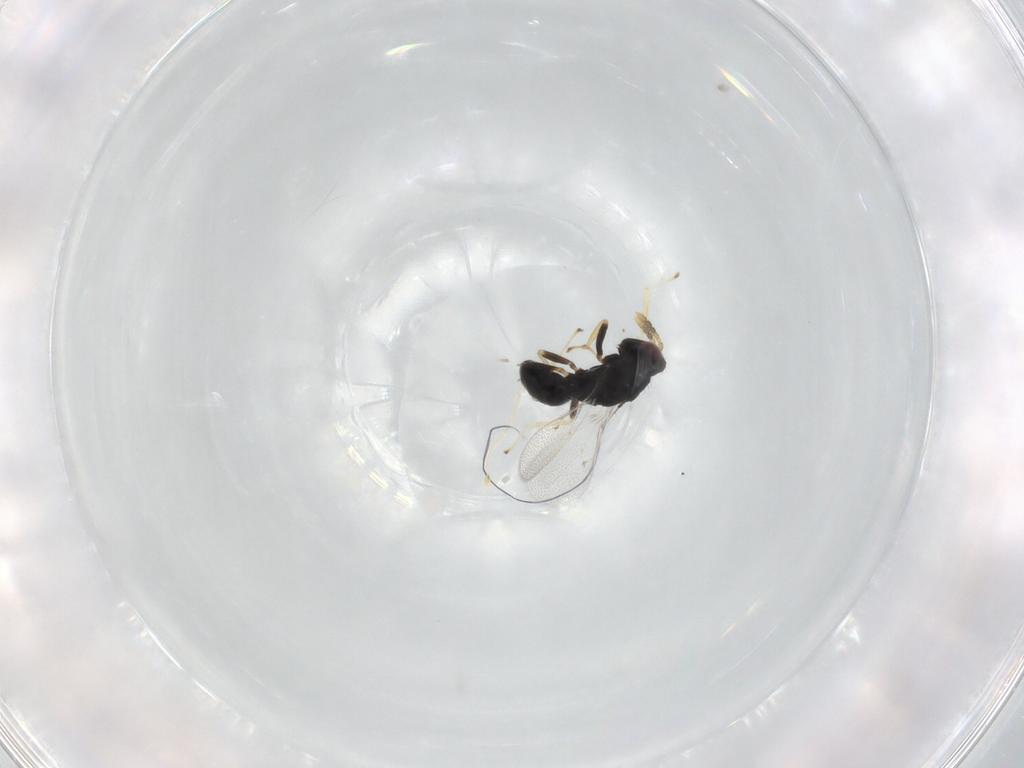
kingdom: Animalia
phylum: Arthropoda
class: Insecta
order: Hymenoptera
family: Eulophidae
